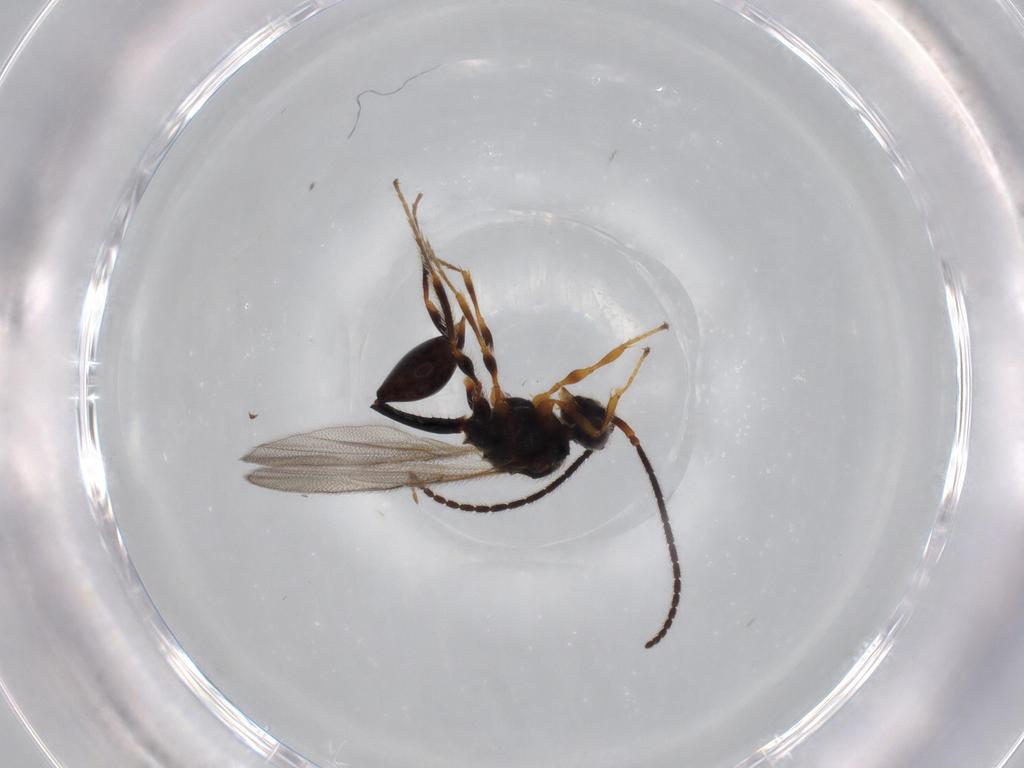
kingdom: Animalia
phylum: Arthropoda
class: Insecta
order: Hymenoptera
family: Diapriidae
